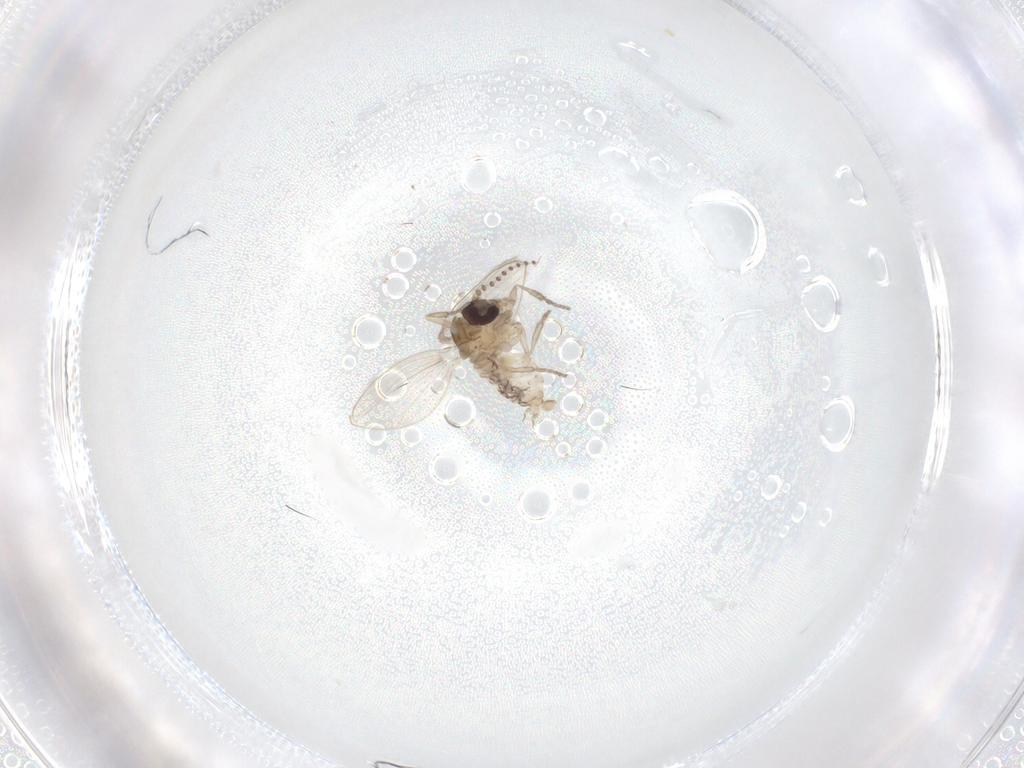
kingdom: Animalia
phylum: Arthropoda
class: Insecta
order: Diptera
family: Psychodidae
